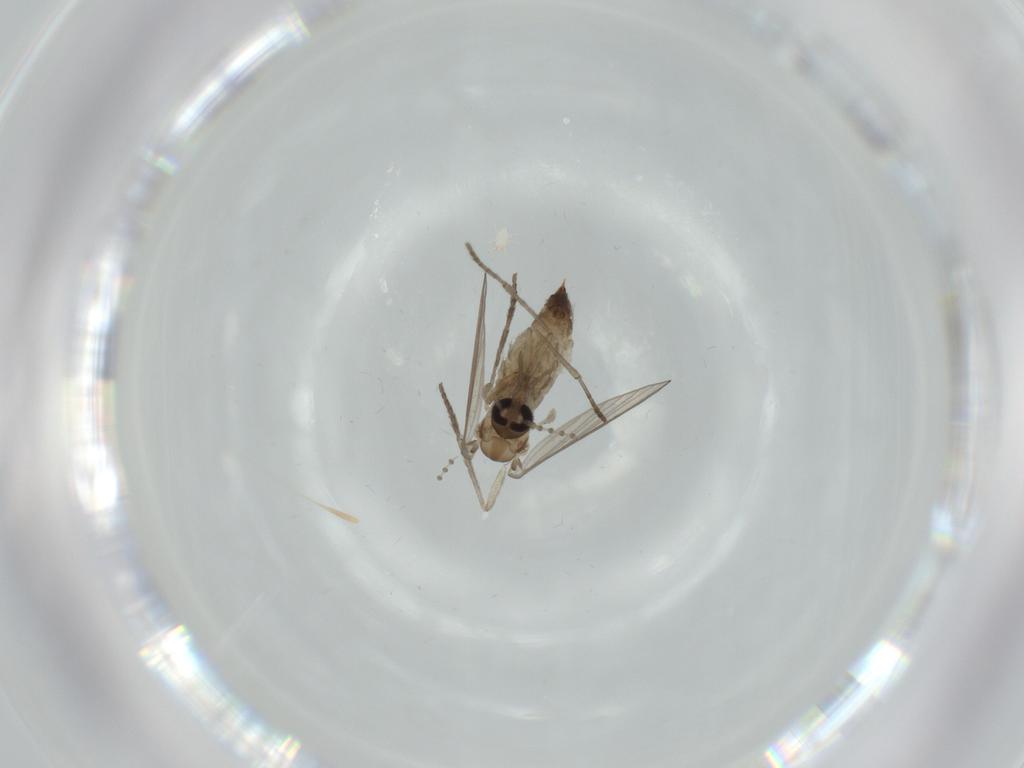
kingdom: Animalia
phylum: Arthropoda
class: Insecta
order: Diptera
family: Psychodidae
